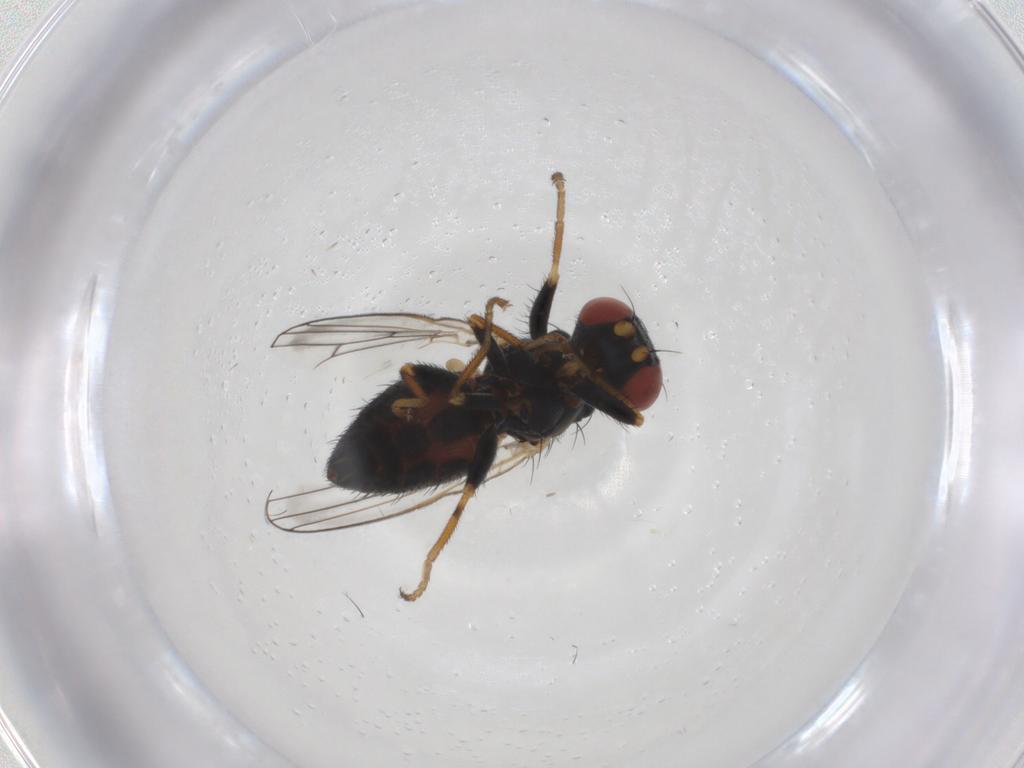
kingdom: Animalia
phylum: Arthropoda
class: Insecta
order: Diptera
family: Chamaemyiidae
